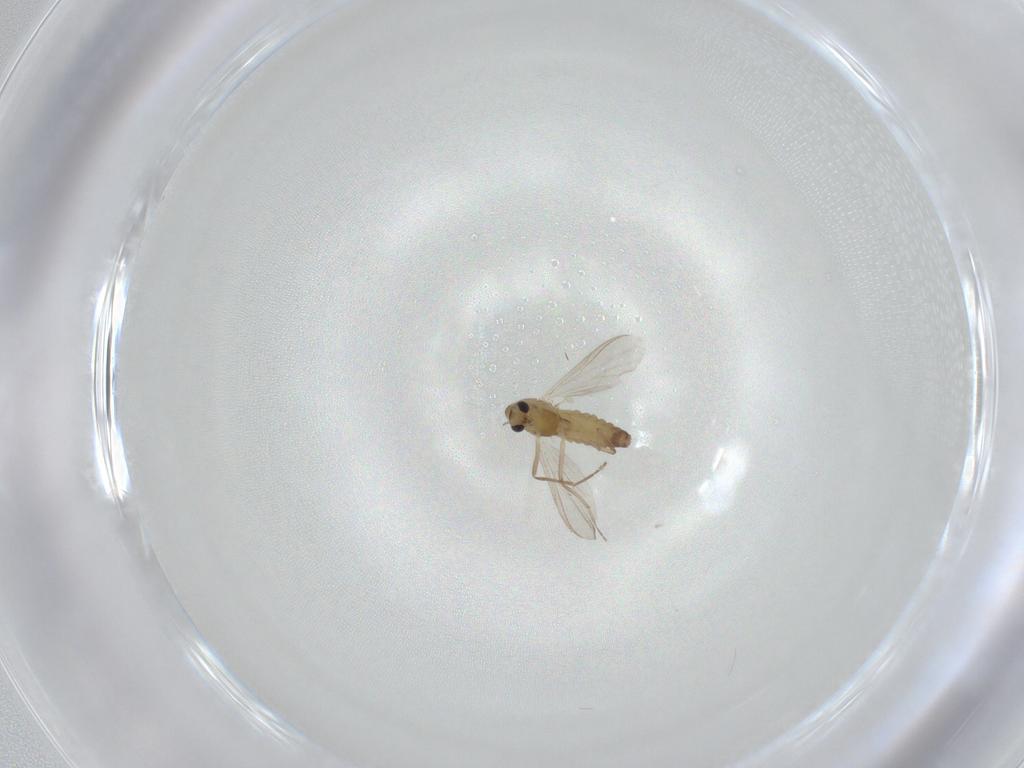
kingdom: Animalia
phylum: Arthropoda
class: Insecta
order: Diptera
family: Chironomidae
